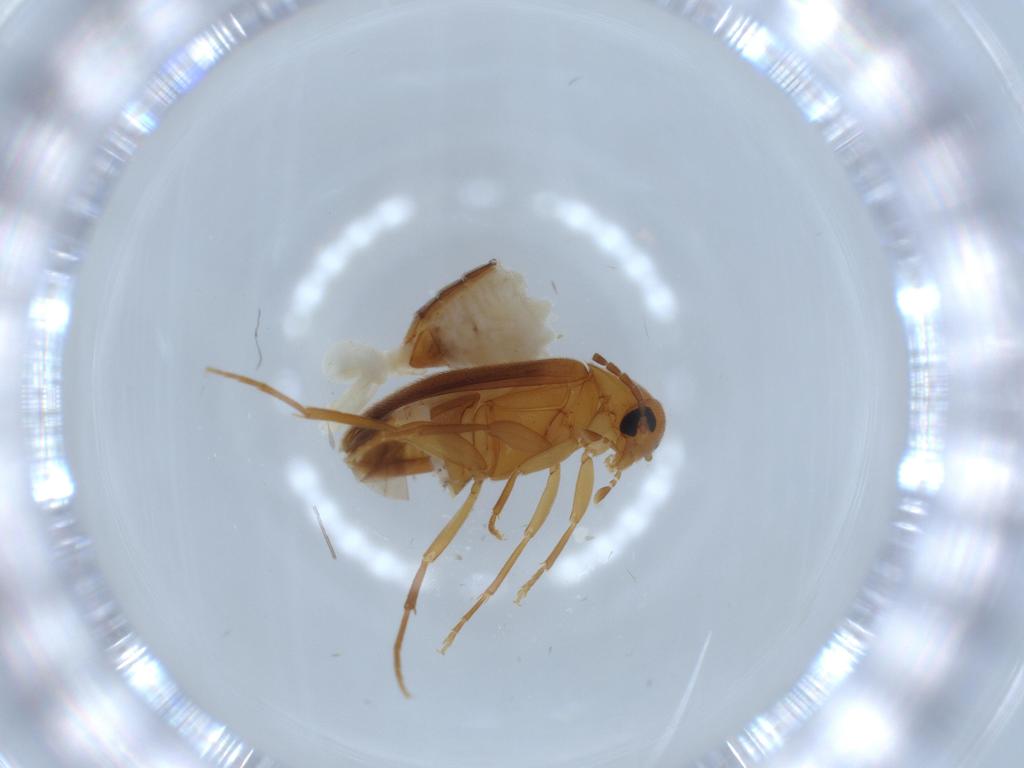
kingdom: Animalia
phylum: Arthropoda
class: Insecta
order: Coleoptera
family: Scraptiidae
